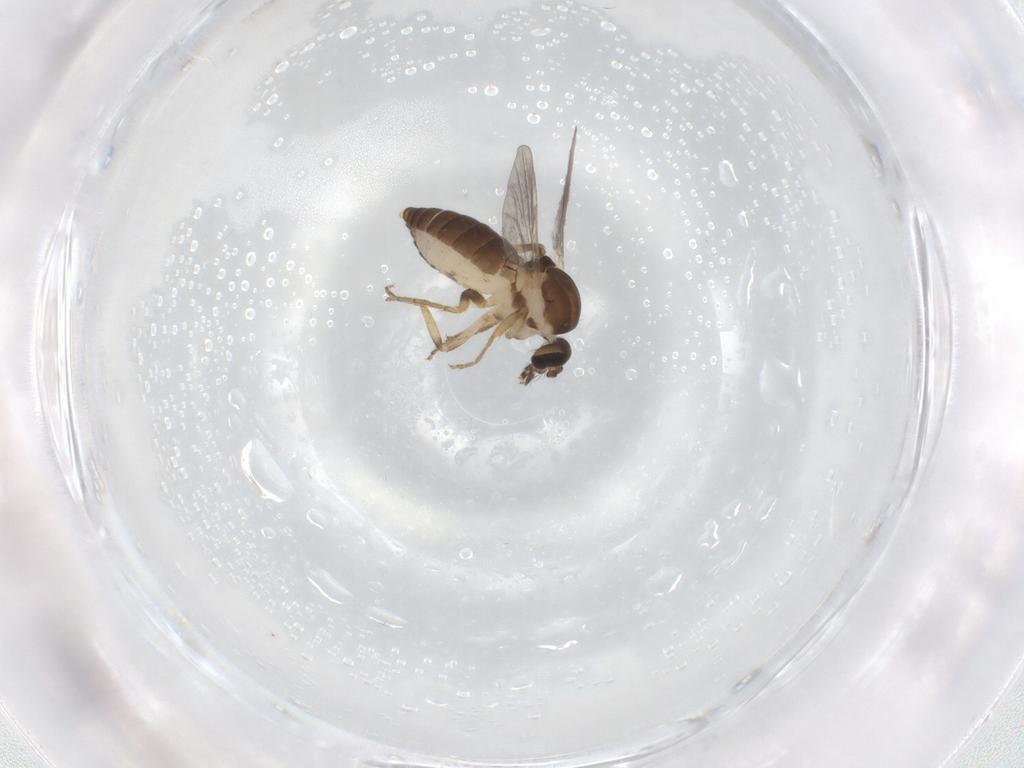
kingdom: Animalia
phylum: Arthropoda
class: Insecta
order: Diptera
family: Ceratopogonidae
